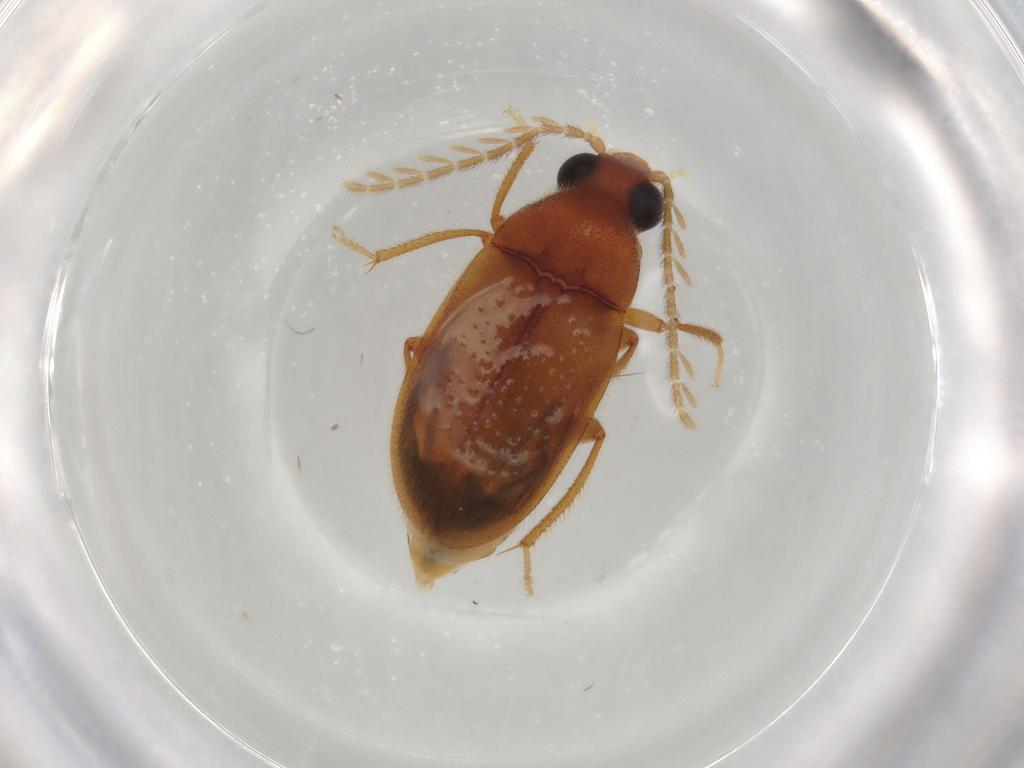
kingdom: Animalia
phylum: Arthropoda
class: Insecta
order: Coleoptera
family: Ptilodactylidae
